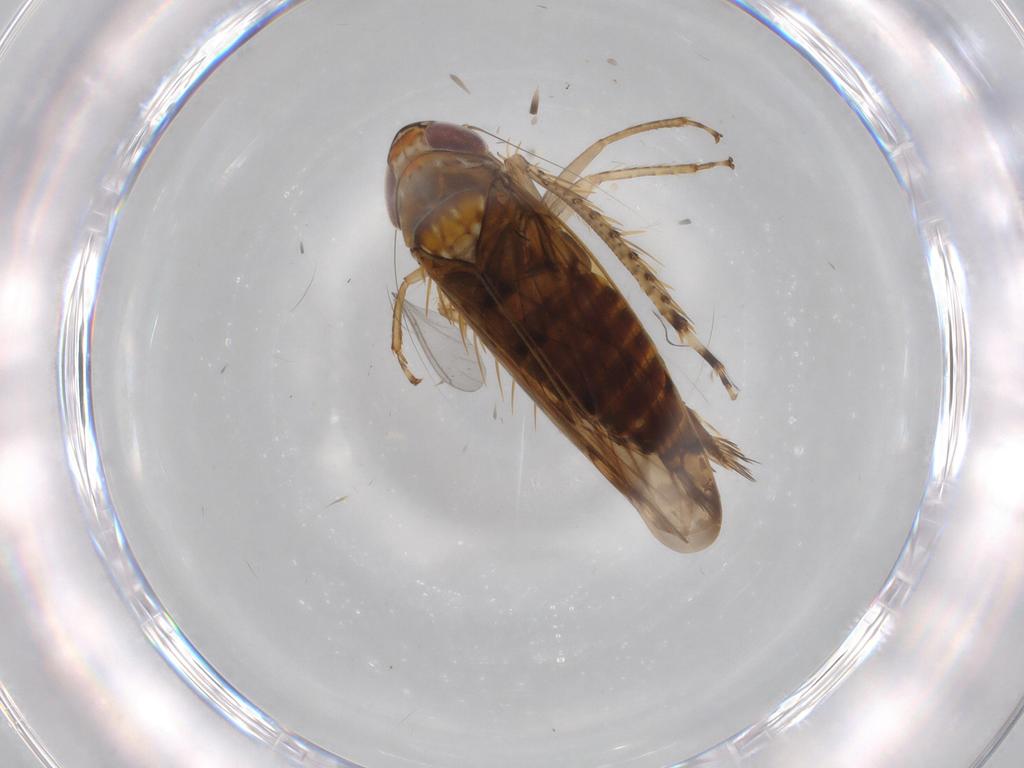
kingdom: Animalia
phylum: Arthropoda
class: Insecta
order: Hemiptera
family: Cicadellidae
